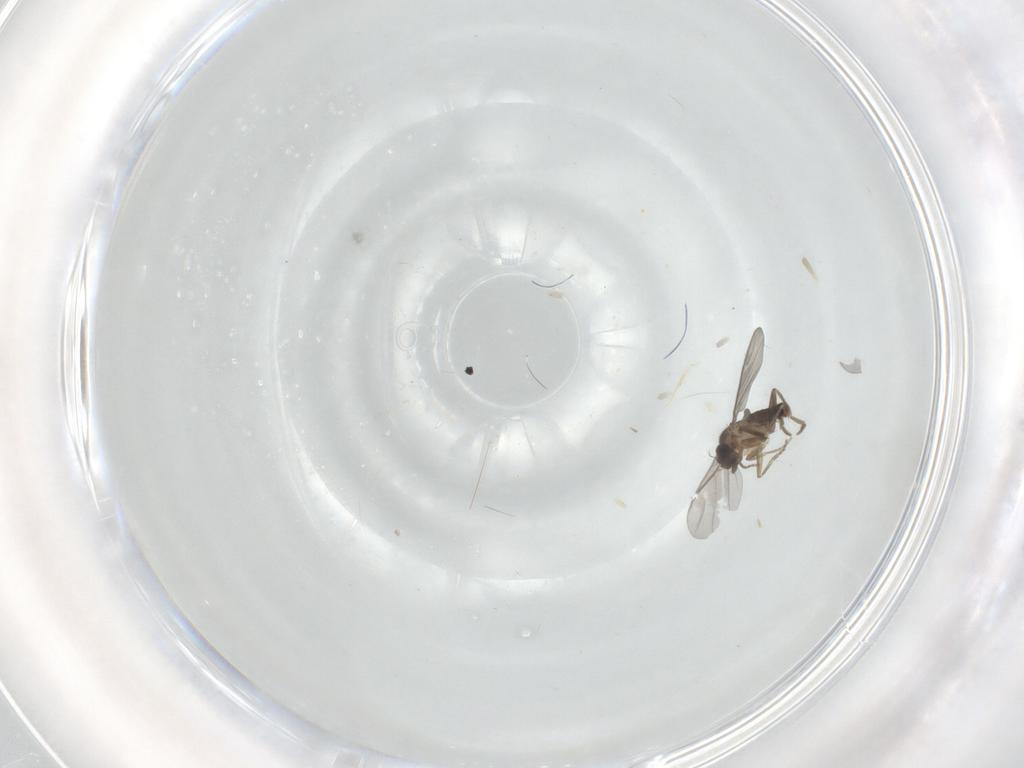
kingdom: Animalia
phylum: Arthropoda
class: Insecta
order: Diptera
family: Phoridae
